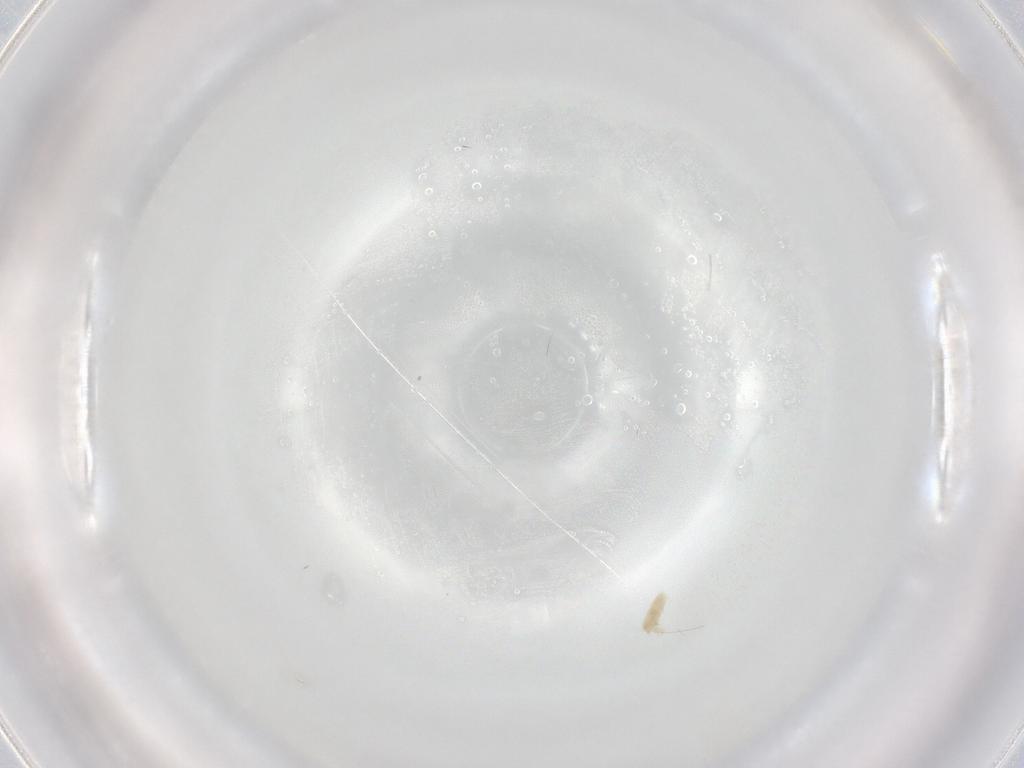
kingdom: Animalia
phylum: Arthropoda
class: Arachnida
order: Trombidiformes
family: Eupodidae
